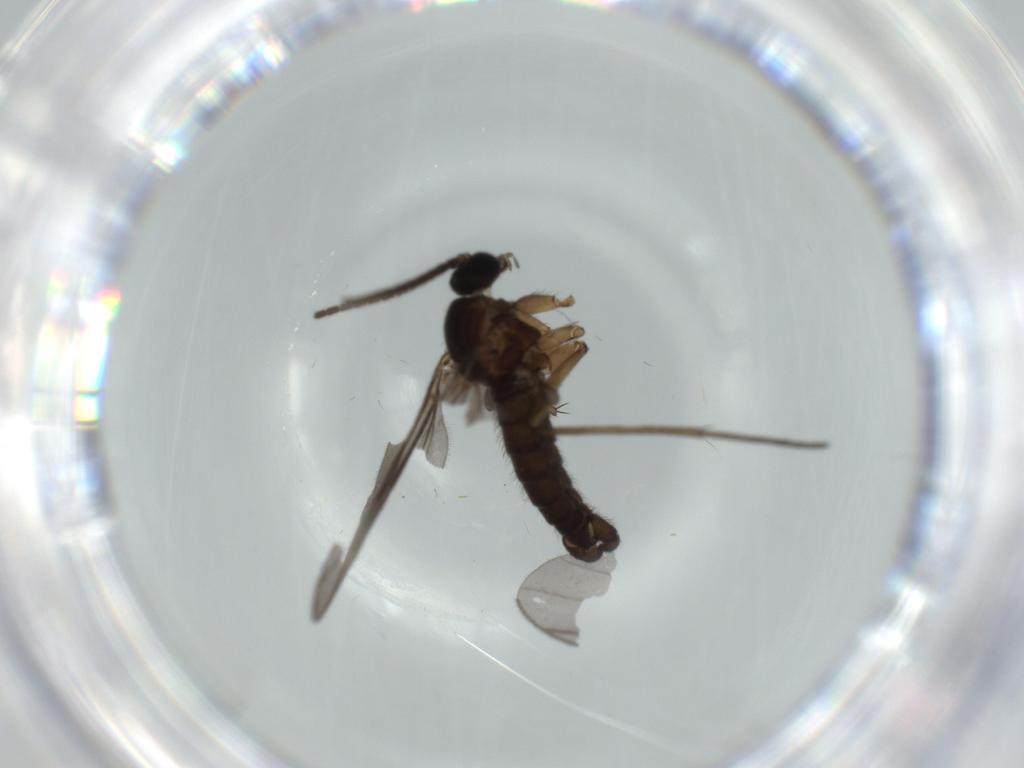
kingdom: Animalia
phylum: Arthropoda
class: Insecta
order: Diptera
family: Sciaridae
